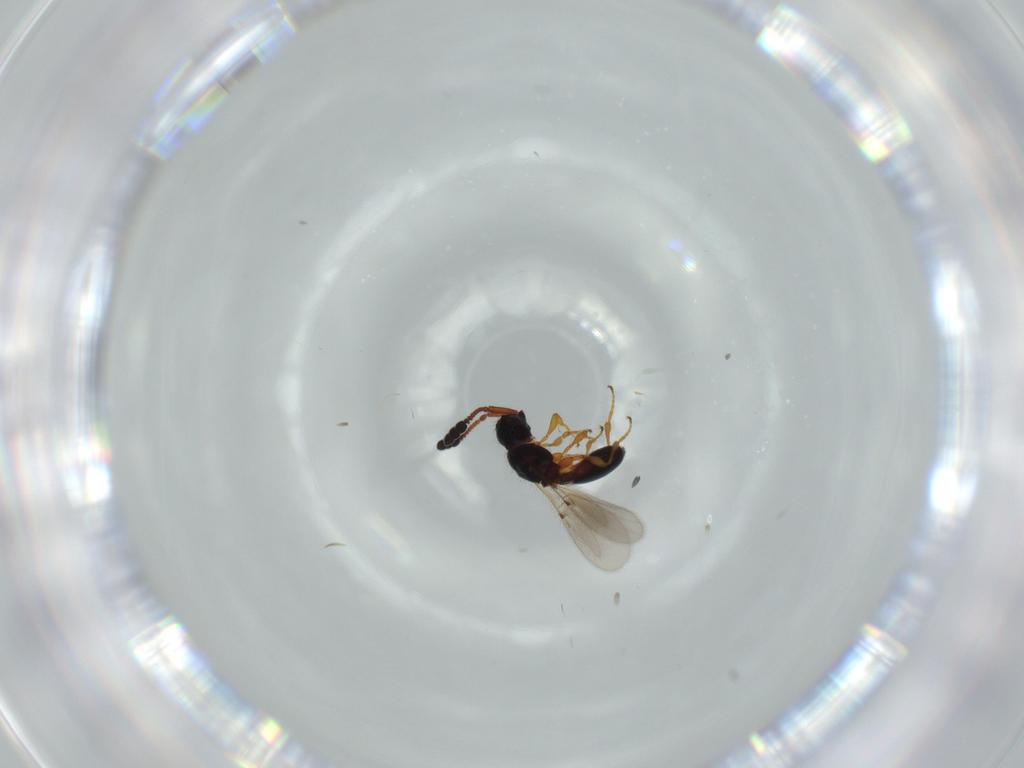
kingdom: Animalia
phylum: Arthropoda
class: Insecta
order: Hymenoptera
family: Diapriidae
